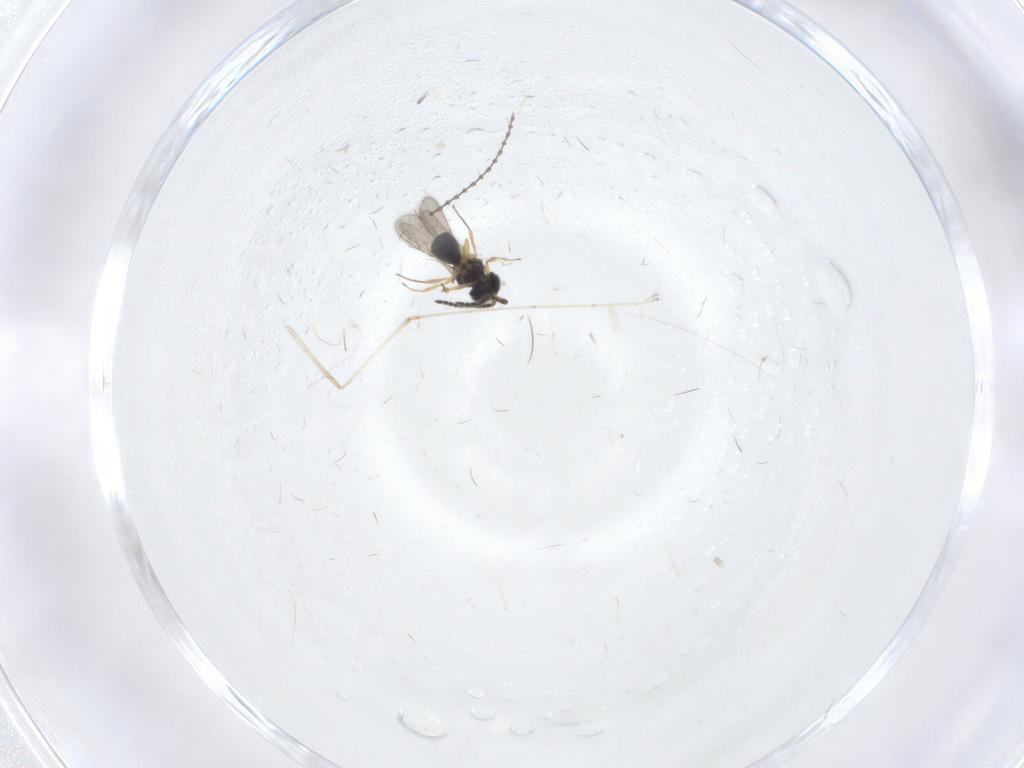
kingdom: Animalia
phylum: Arthropoda
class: Insecta
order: Diptera
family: Cecidomyiidae
